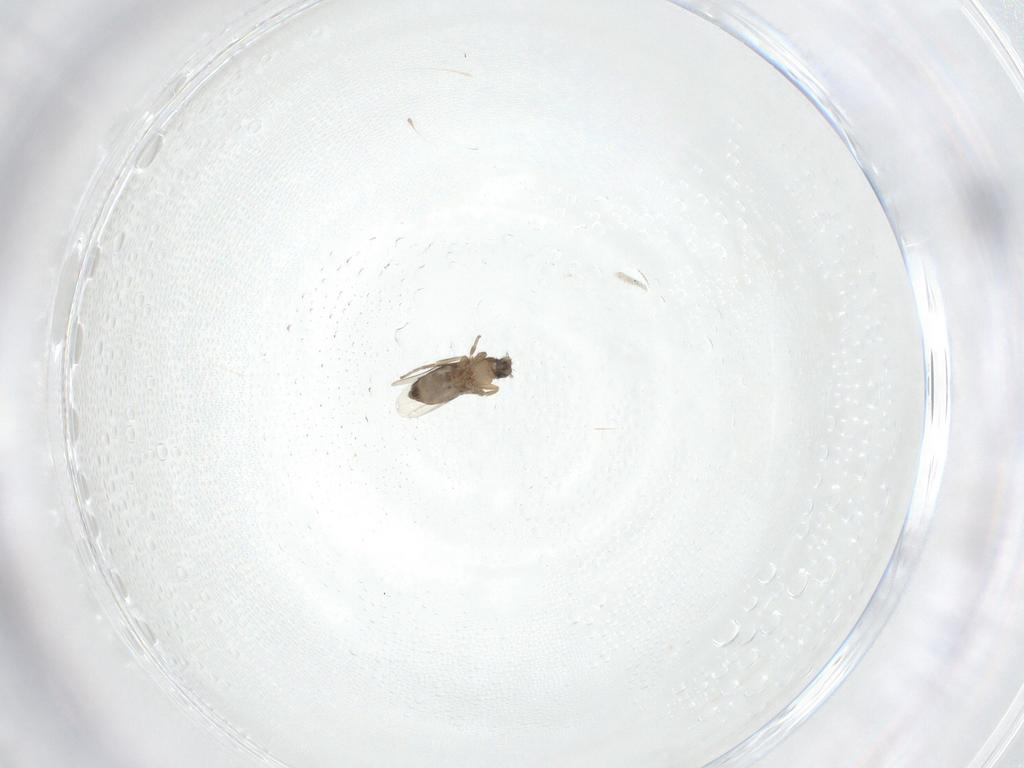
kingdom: Animalia
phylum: Arthropoda
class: Insecta
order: Diptera
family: Phoridae
